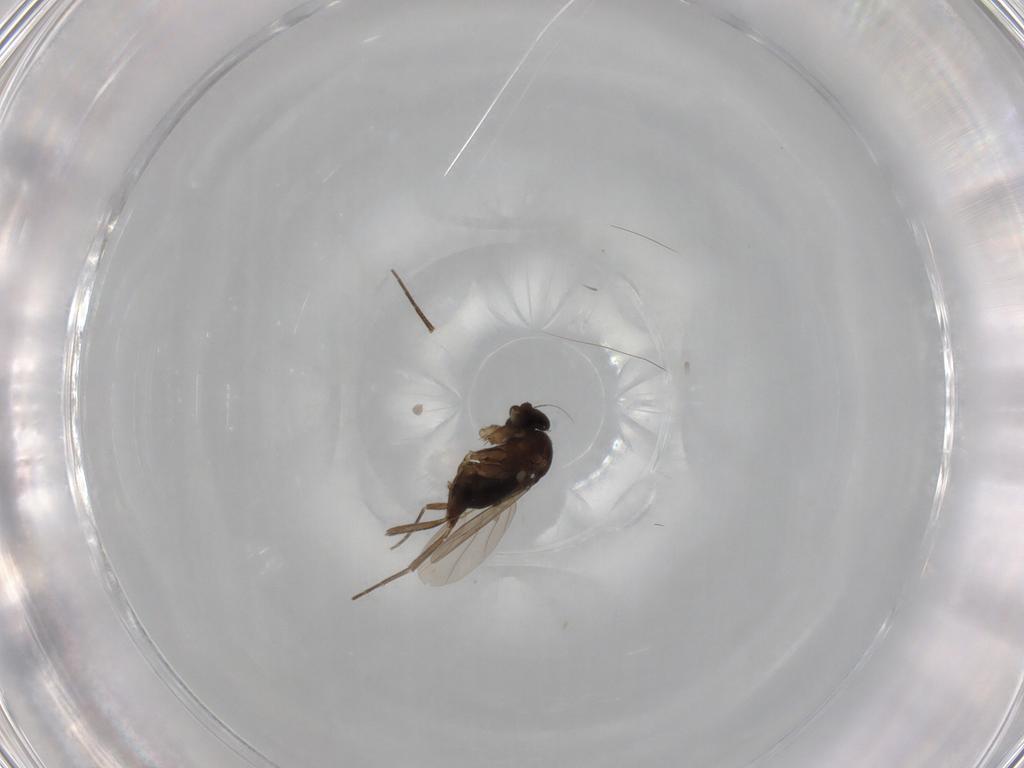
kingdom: Animalia
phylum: Arthropoda
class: Insecta
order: Diptera
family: Phoridae
